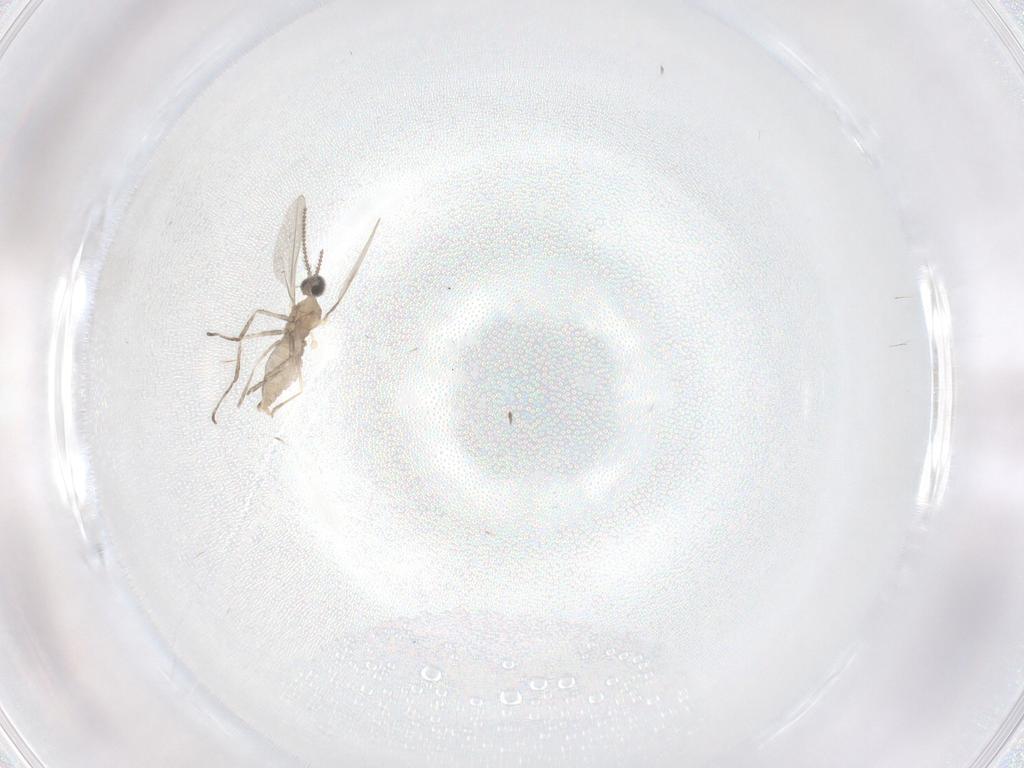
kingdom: Animalia
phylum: Arthropoda
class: Insecta
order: Diptera
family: Cecidomyiidae
